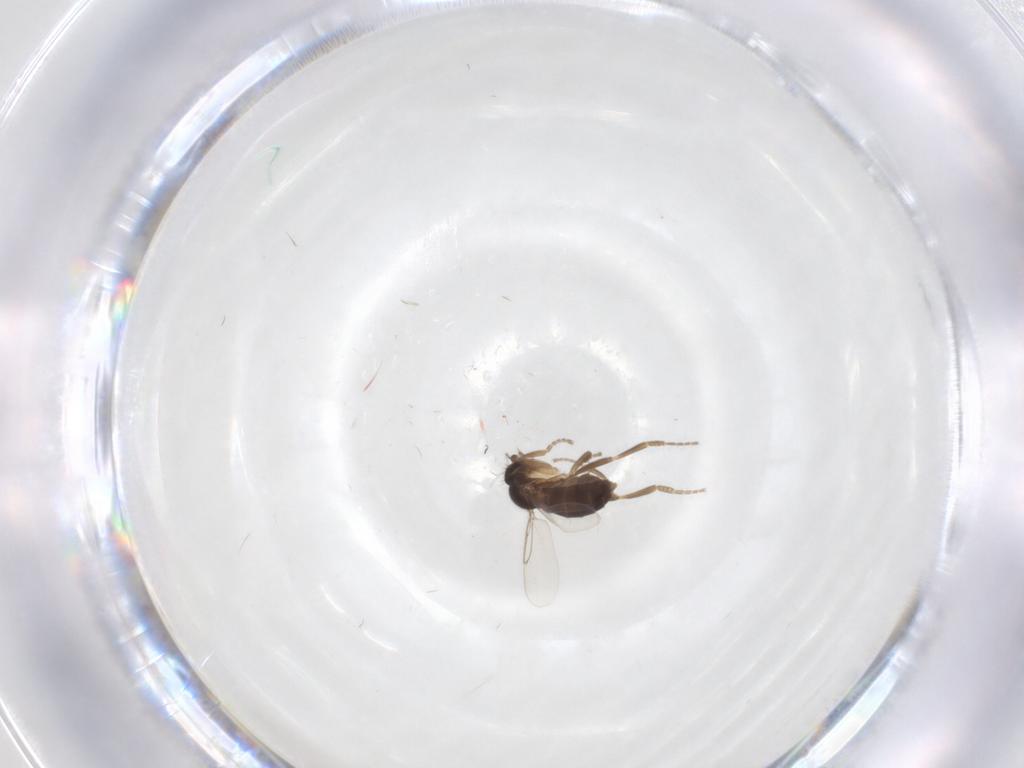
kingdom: Animalia
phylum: Arthropoda
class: Insecta
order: Diptera
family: Phoridae
